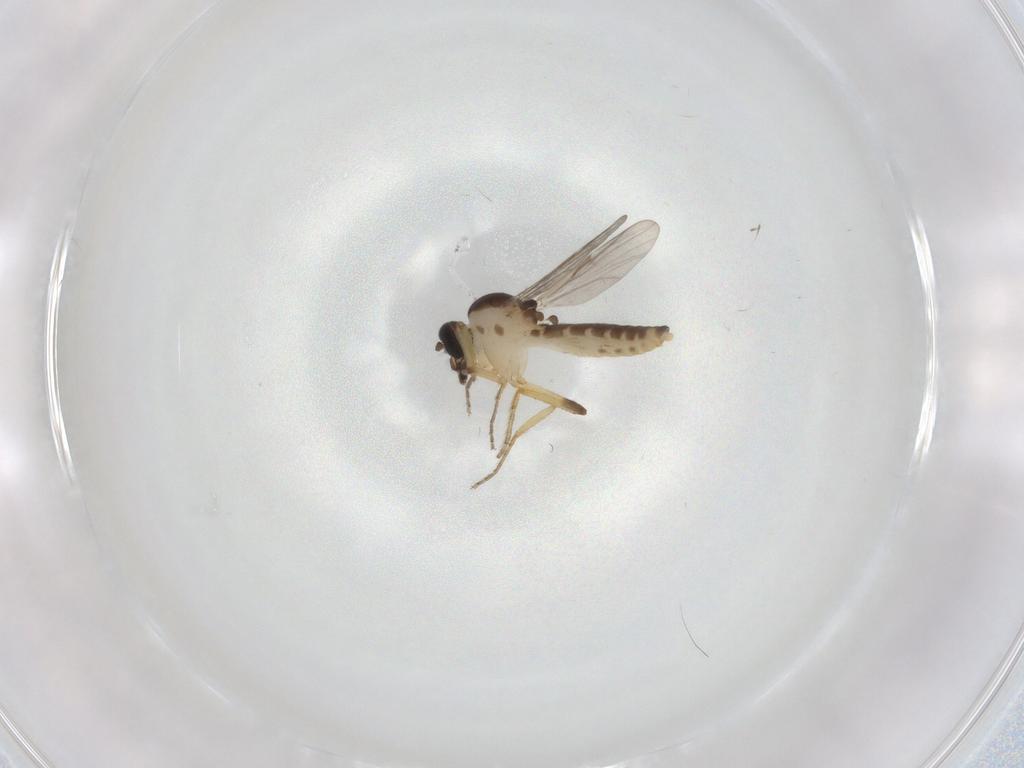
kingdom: Animalia
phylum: Arthropoda
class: Insecta
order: Diptera
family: Ceratopogonidae
